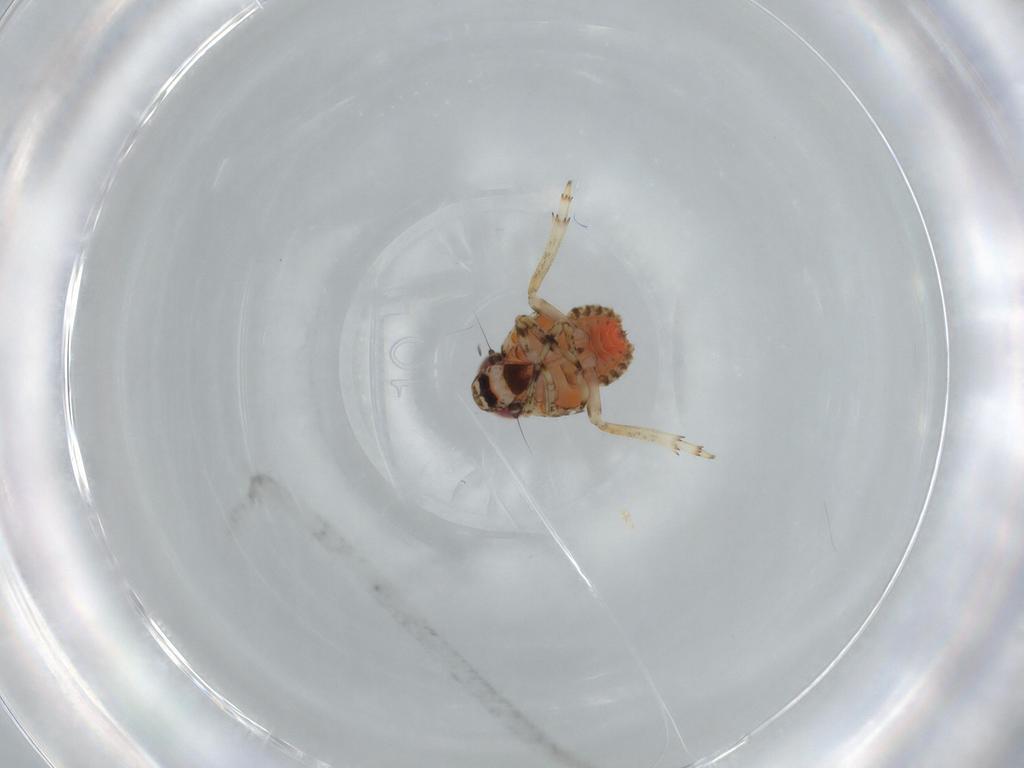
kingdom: Animalia
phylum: Arthropoda
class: Insecta
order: Hemiptera
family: Issidae
